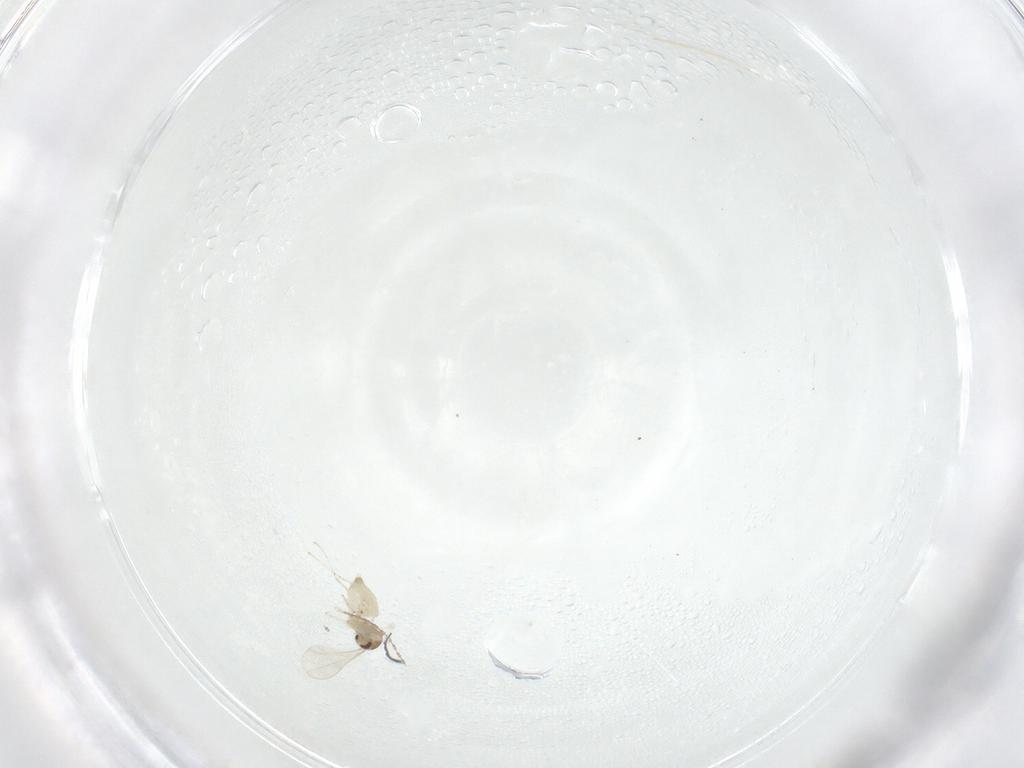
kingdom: Animalia
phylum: Arthropoda
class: Insecta
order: Diptera
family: Cecidomyiidae
